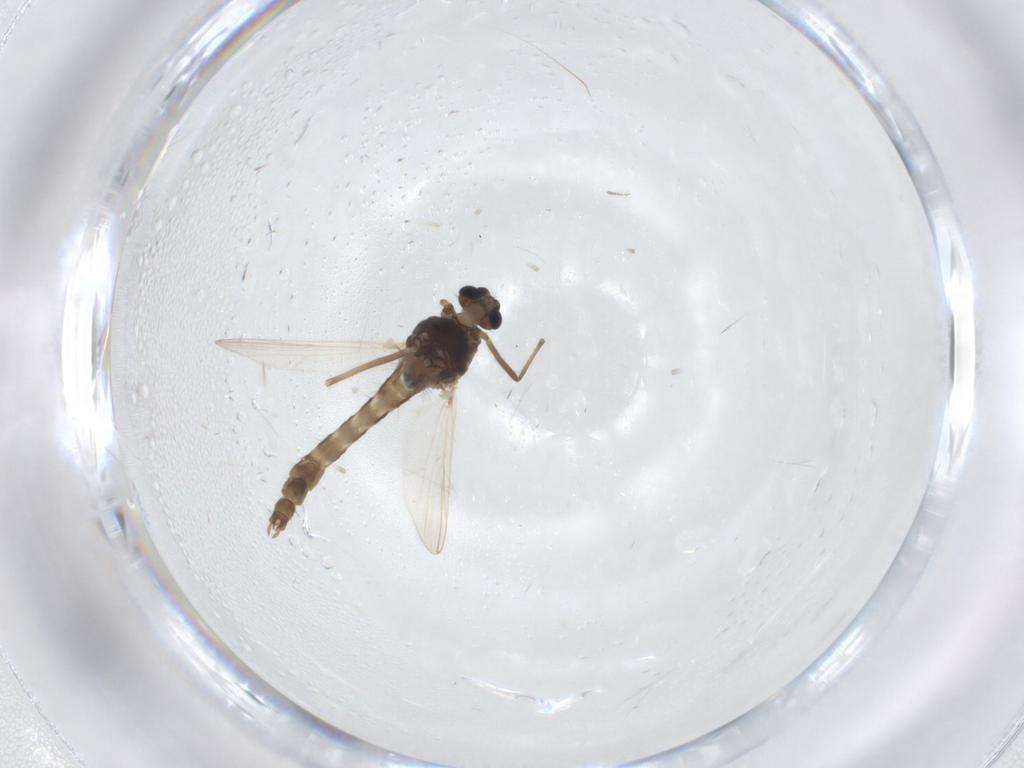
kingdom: Animalia
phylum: Arthropoda
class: Insecta
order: Diptera
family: Chironomidae
